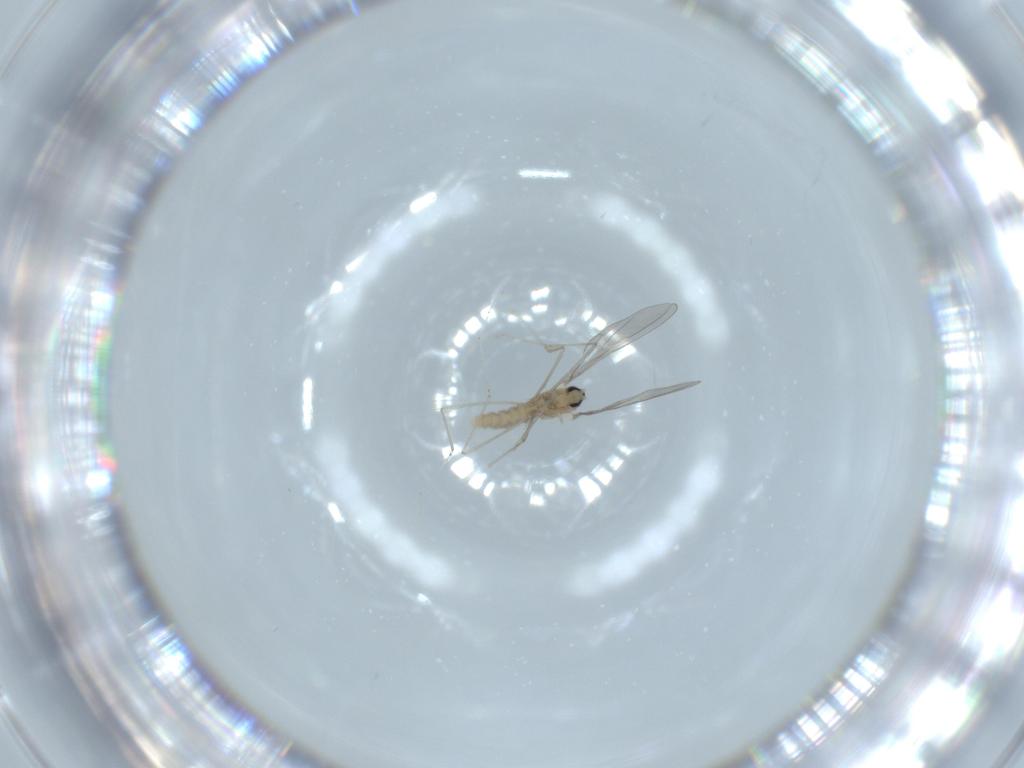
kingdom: Animalia
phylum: Arthropoda
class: Insecta
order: Diptera
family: Cecidomyiidae
